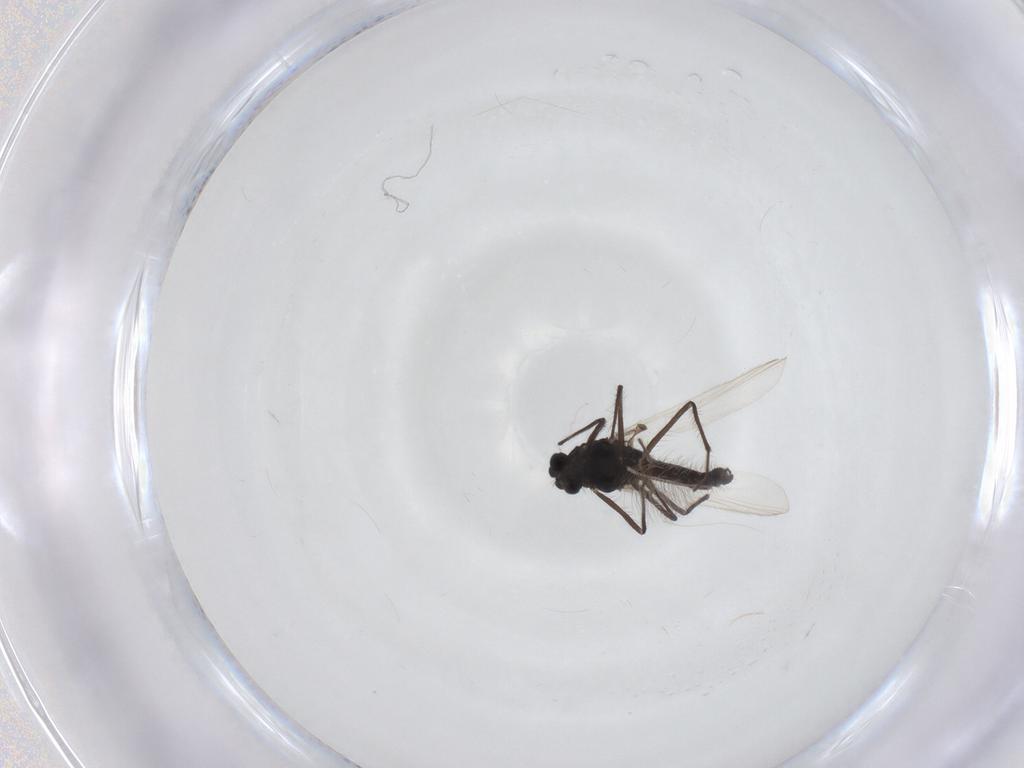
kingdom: Animalia
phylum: Arthropoda
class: Insecta
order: Diptera
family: Chironomidae
